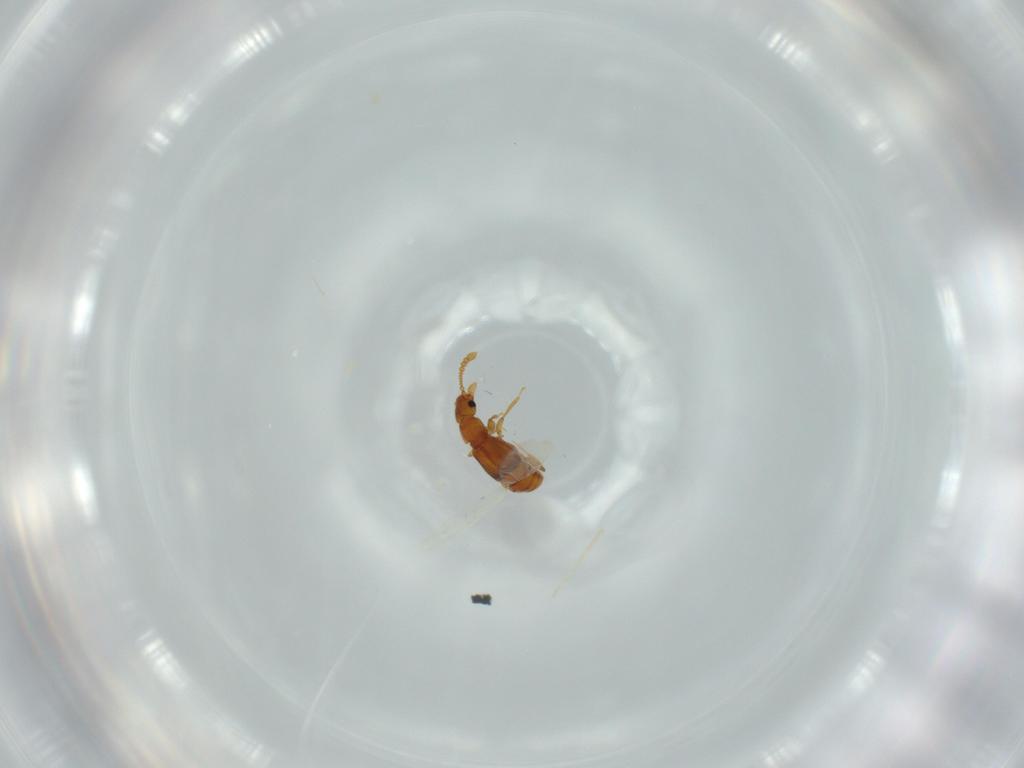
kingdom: Animalia
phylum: Arthropoda
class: Insecta
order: Coleoptera
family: Staphylinidae
